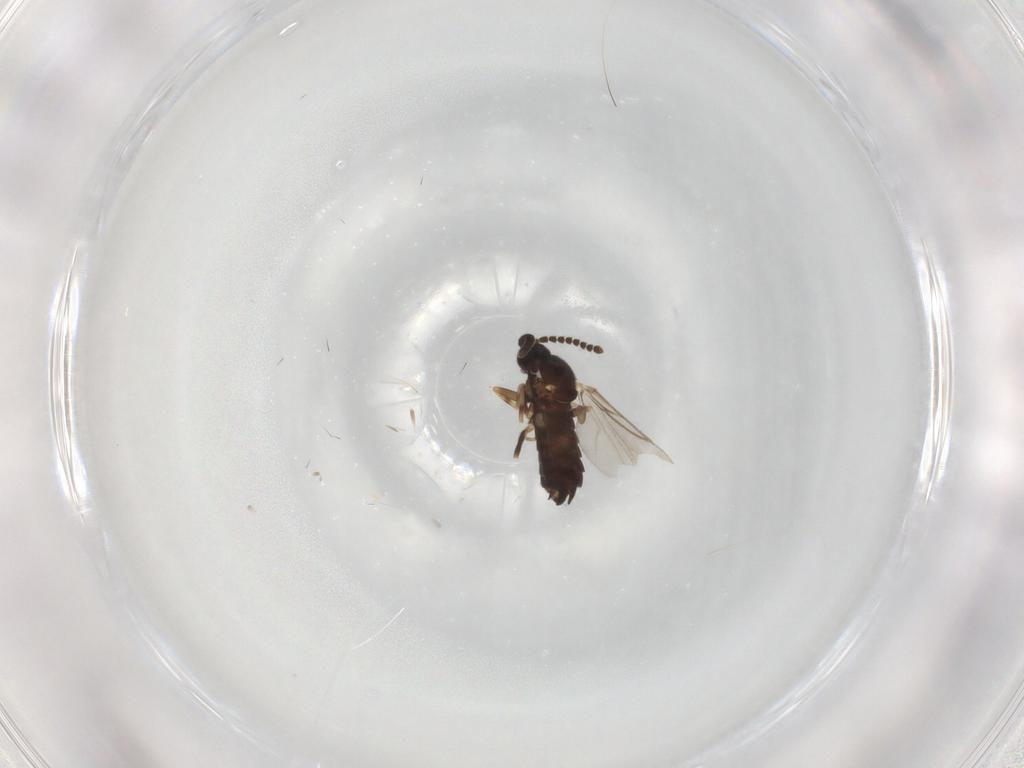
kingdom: Animalia
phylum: Arthropoda
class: Insecta
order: Diptera
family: Scatopsidae
